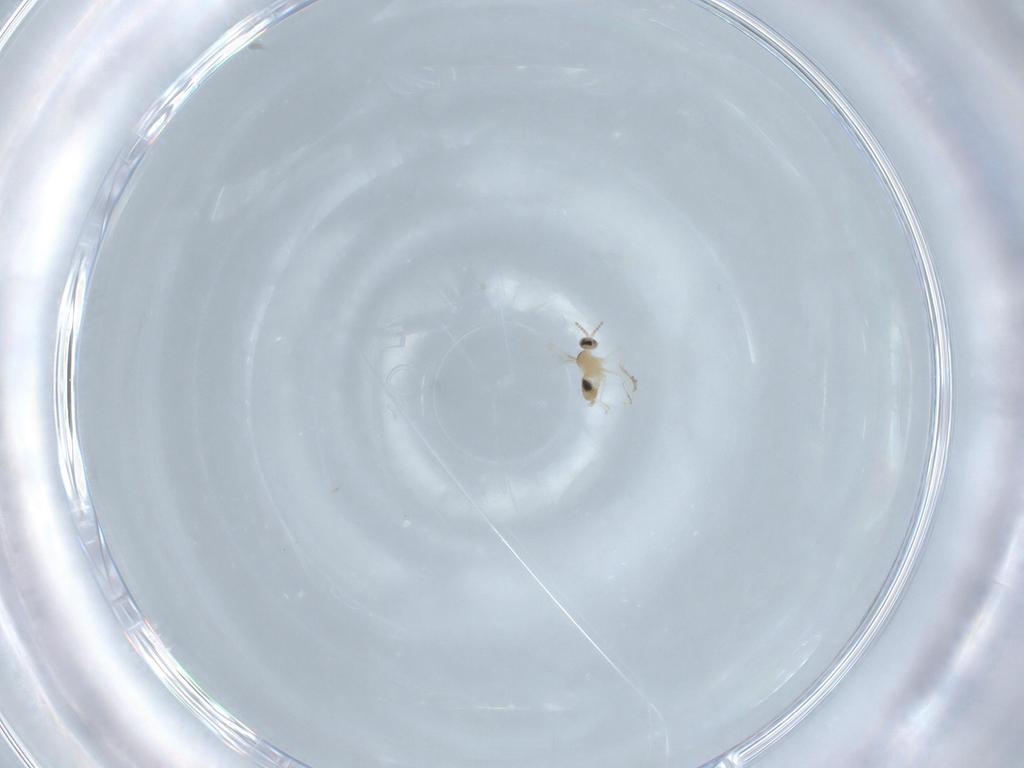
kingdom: Animalia
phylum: Arthropoda
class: Insecta
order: Diptera
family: Cecidomyiidae
